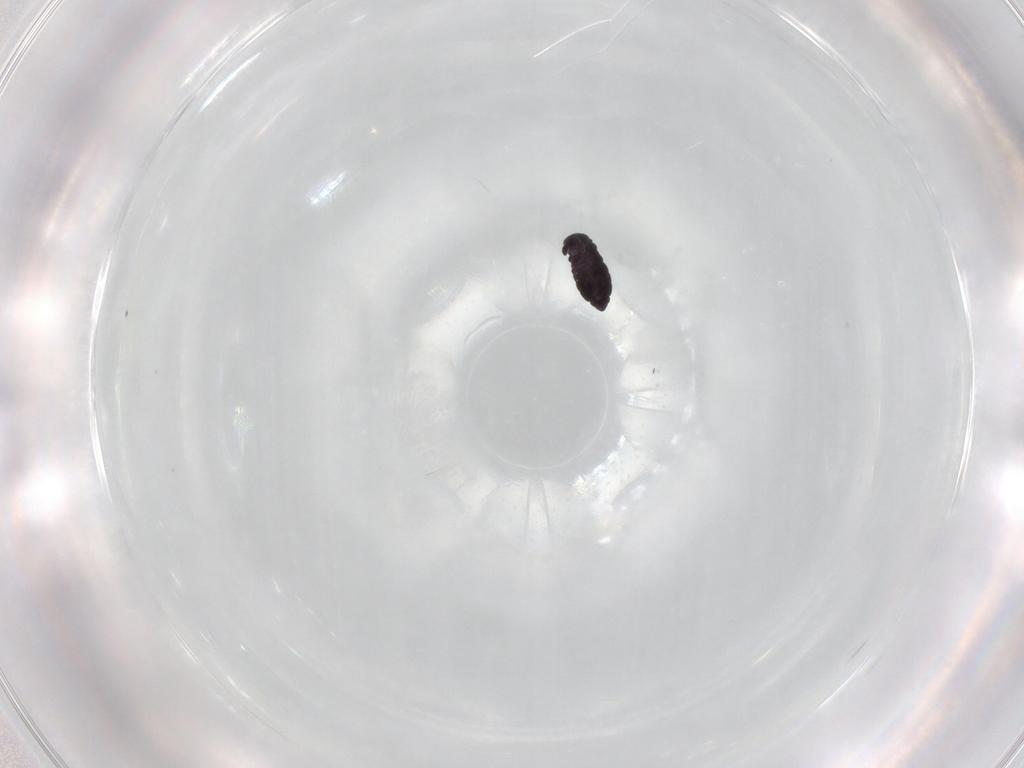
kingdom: Animalia
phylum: Arthropoda
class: Collembola
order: Poduromorpha
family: Hypogastruridae
